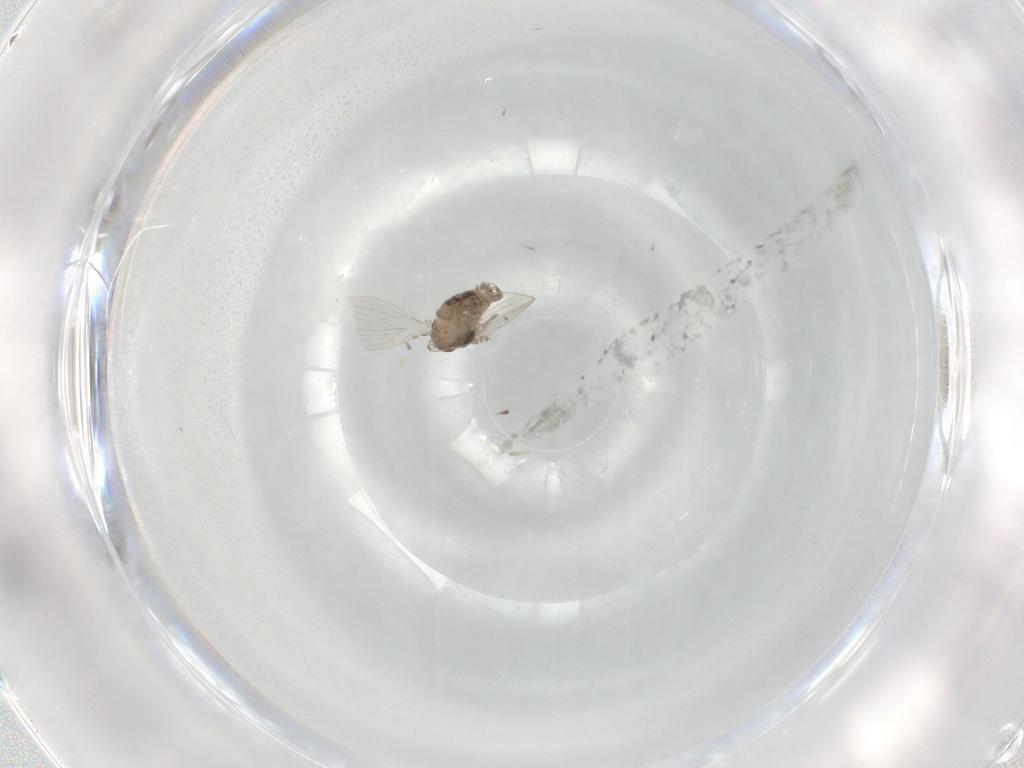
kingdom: Animalia
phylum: Arthropoda
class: Insecta
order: Diptera
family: Psychodidae
